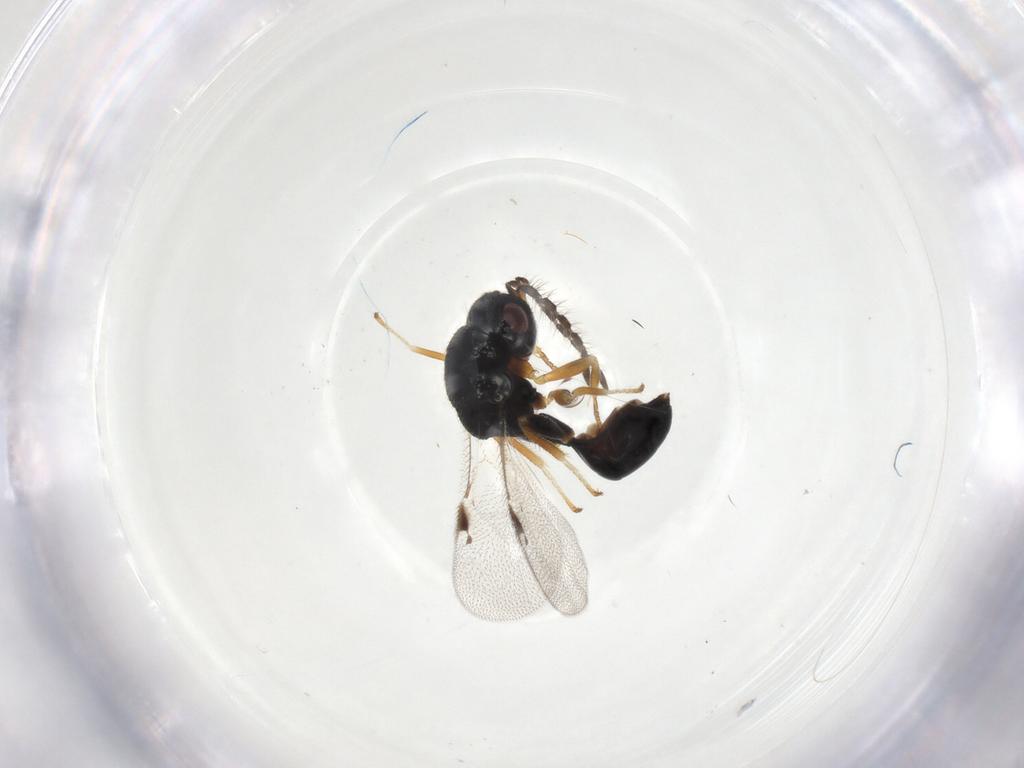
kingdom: Animalia
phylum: Arthropoda
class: Insecta
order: Hymenoptera
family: Eurytomidae
